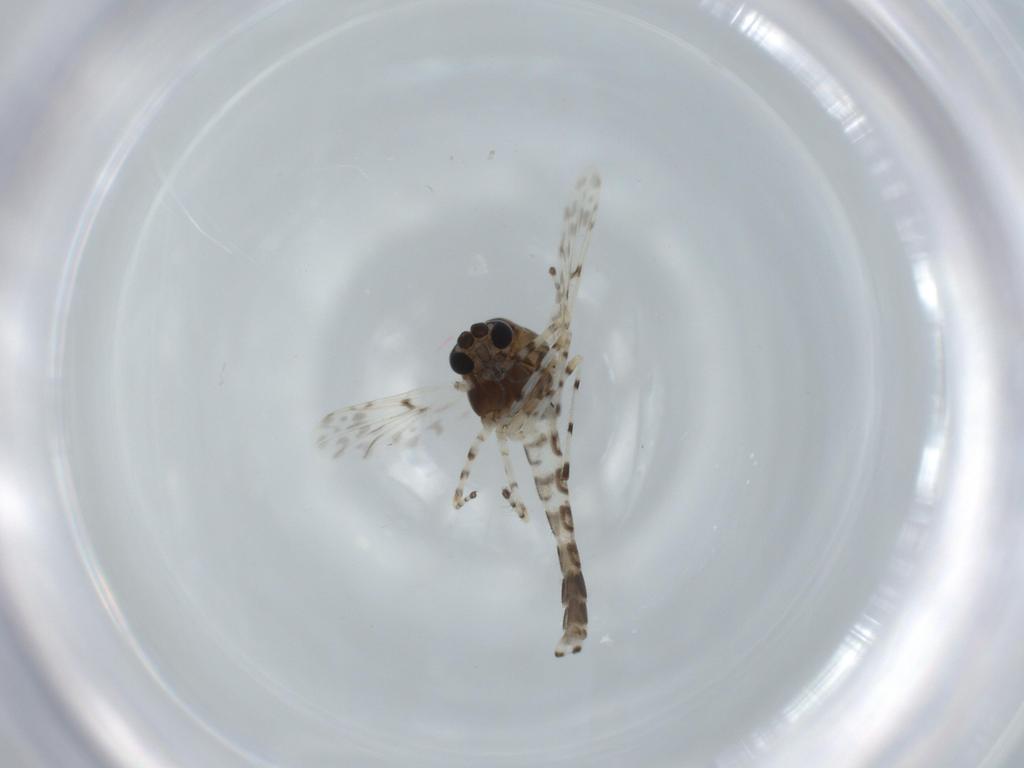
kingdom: Animalia
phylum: Arthropoda
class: Insecta
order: Diptera
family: Chironomidae
